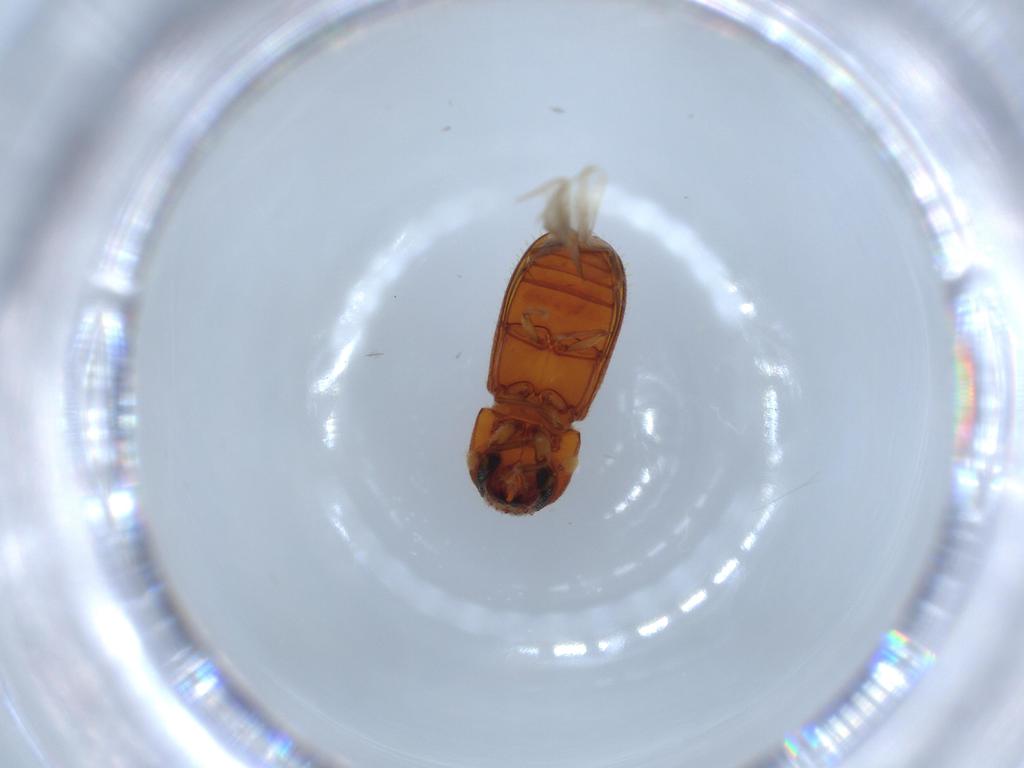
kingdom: Animalia
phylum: Arthropoda
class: Insecta
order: Coleoptera
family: Bostrichidae
